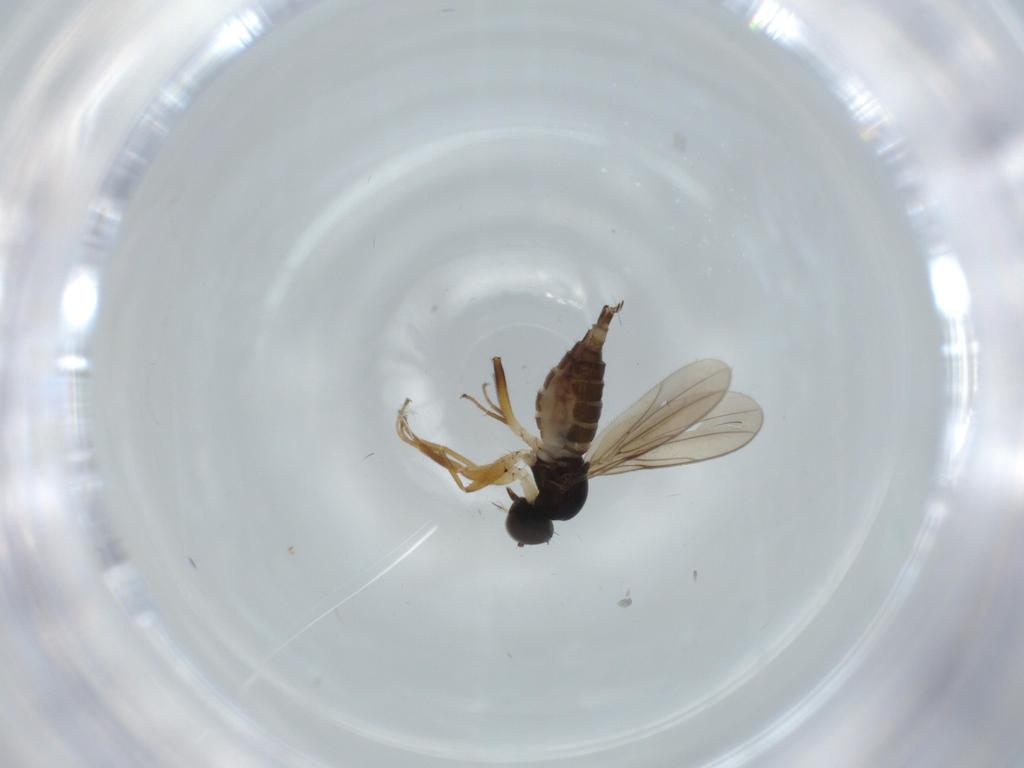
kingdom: Animalia
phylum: Arthropoda
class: Insecta
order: Diptera
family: Hybotidae
